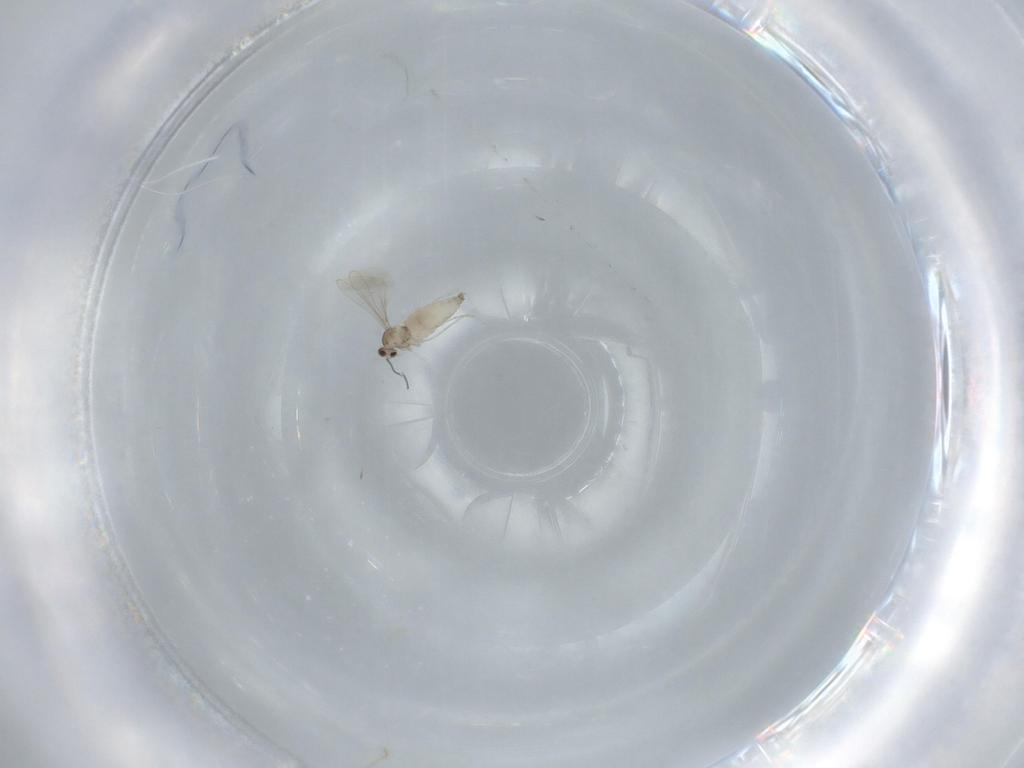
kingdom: Animalia
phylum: Arthropoda
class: Insecta
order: Diptera
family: Cecidomyiidae
